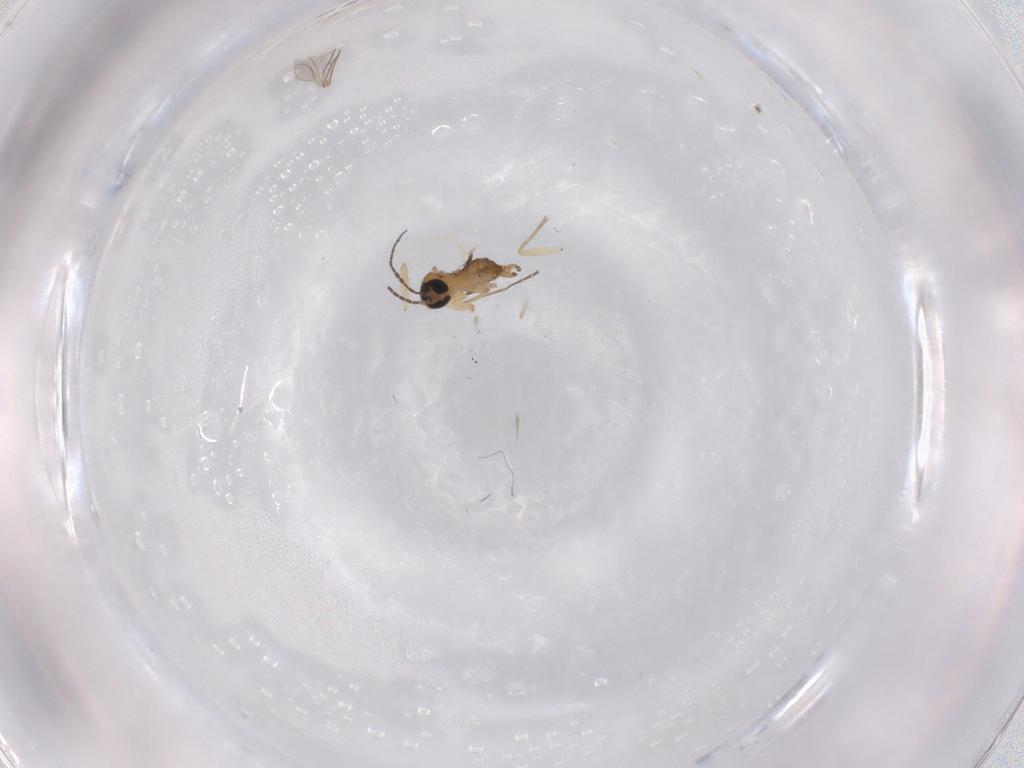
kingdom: Animalia
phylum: Arthropoda
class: Insecta
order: Diptera
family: Sciaridae
